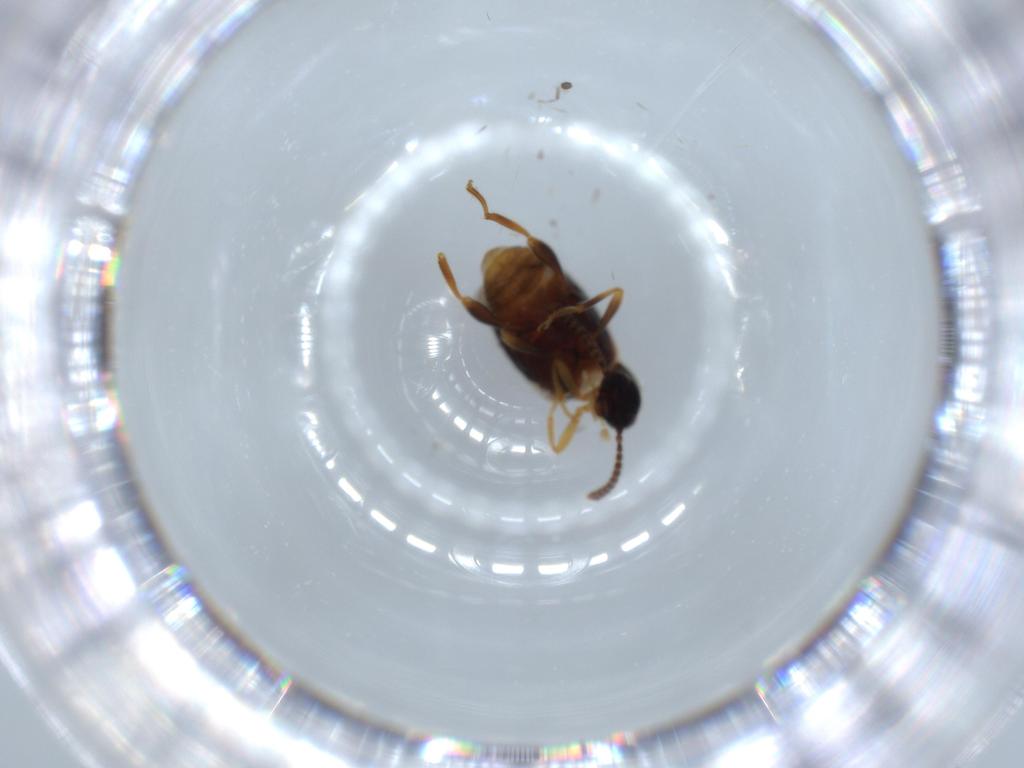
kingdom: Animalia
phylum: Arthropoda
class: Insecta
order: Coleoptera
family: Aderidae
